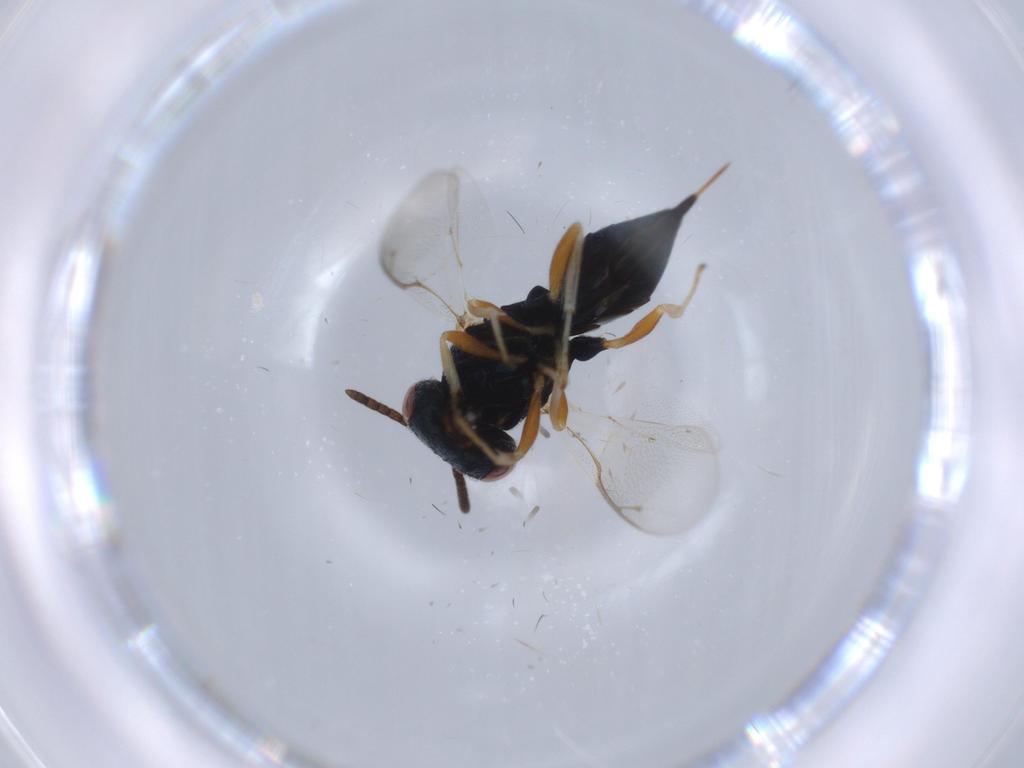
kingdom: Animalia
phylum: Arthropoda
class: Insecta
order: Hymenoptera
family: Pteromalidae
